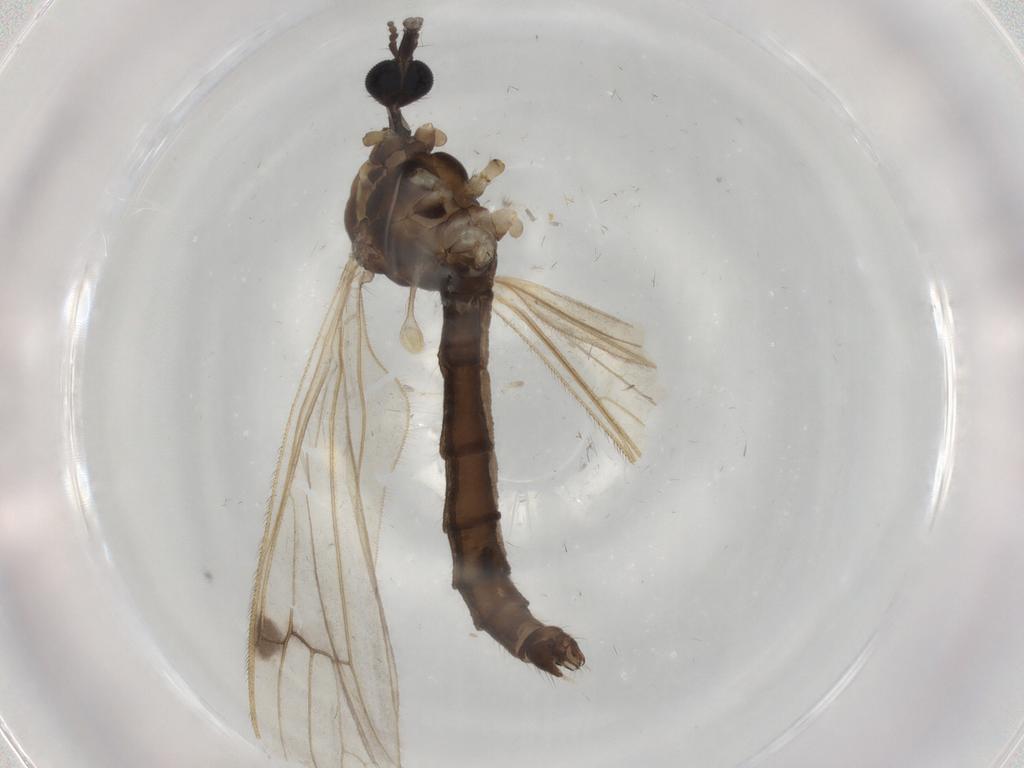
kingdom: Animalia
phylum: Arthropoda
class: Insecta
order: Diptera
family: Limoniidae
